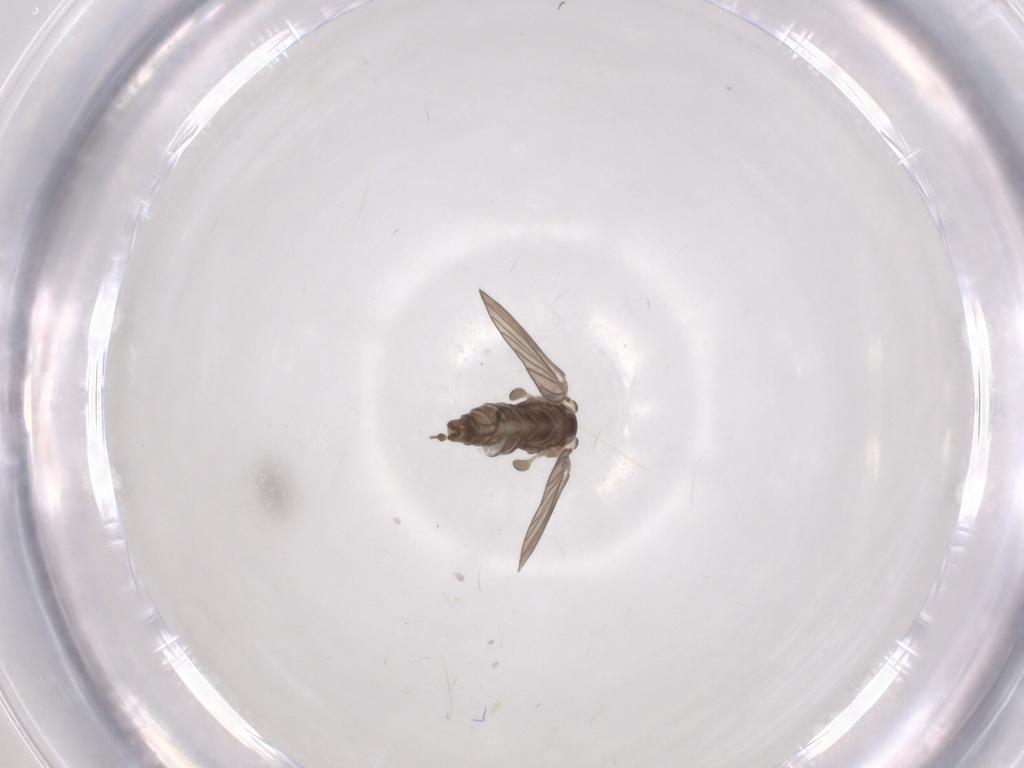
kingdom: Animalia
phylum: Arthropoda
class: Insecta
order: Diptera
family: Psychodidae
